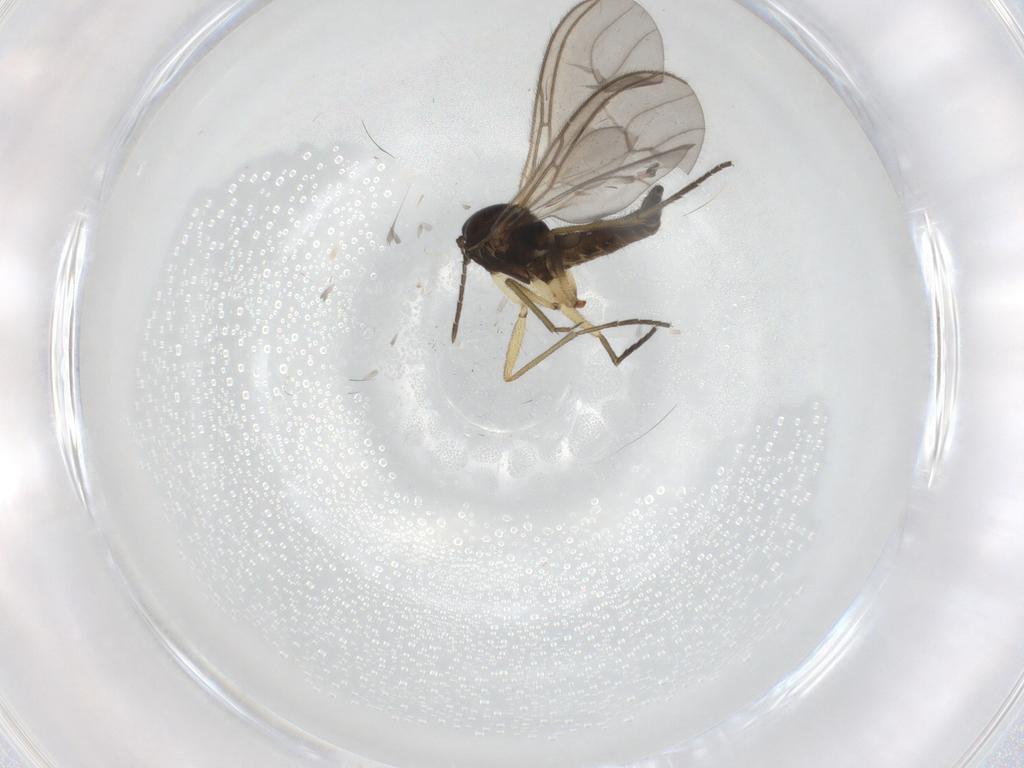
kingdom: Animalia
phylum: Arthropoda
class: Insecta
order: Diptera
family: Sciaridae
